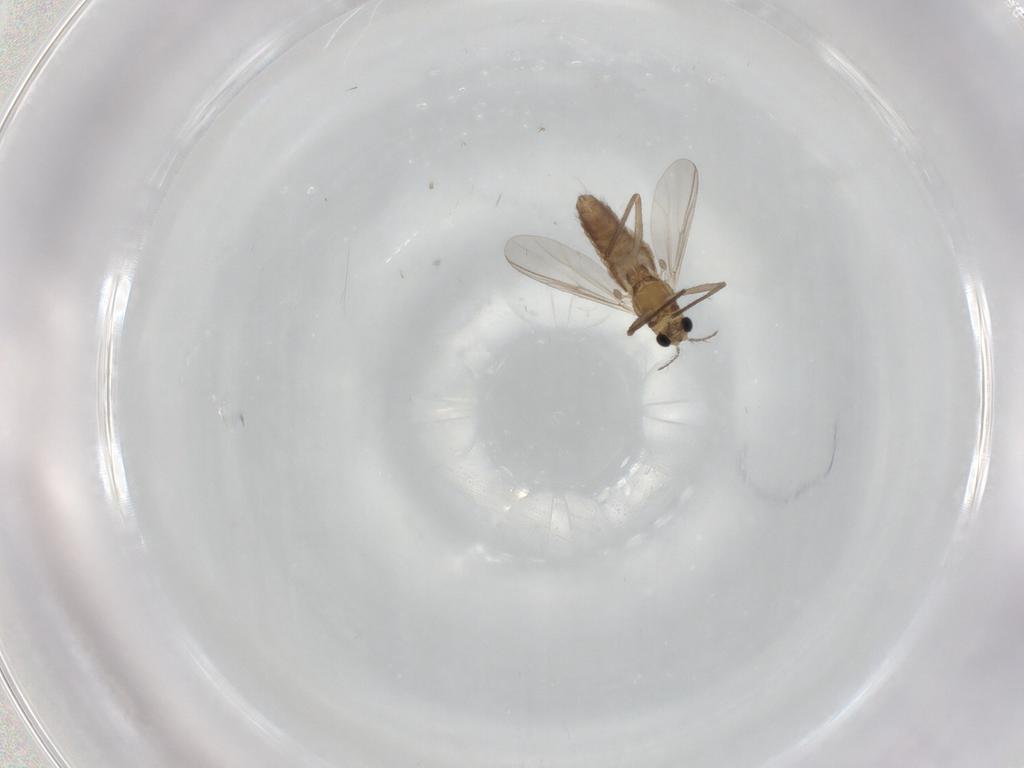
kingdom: Animalia
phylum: Arthropoda
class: Insecta
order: Diptera
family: Chironomidae
